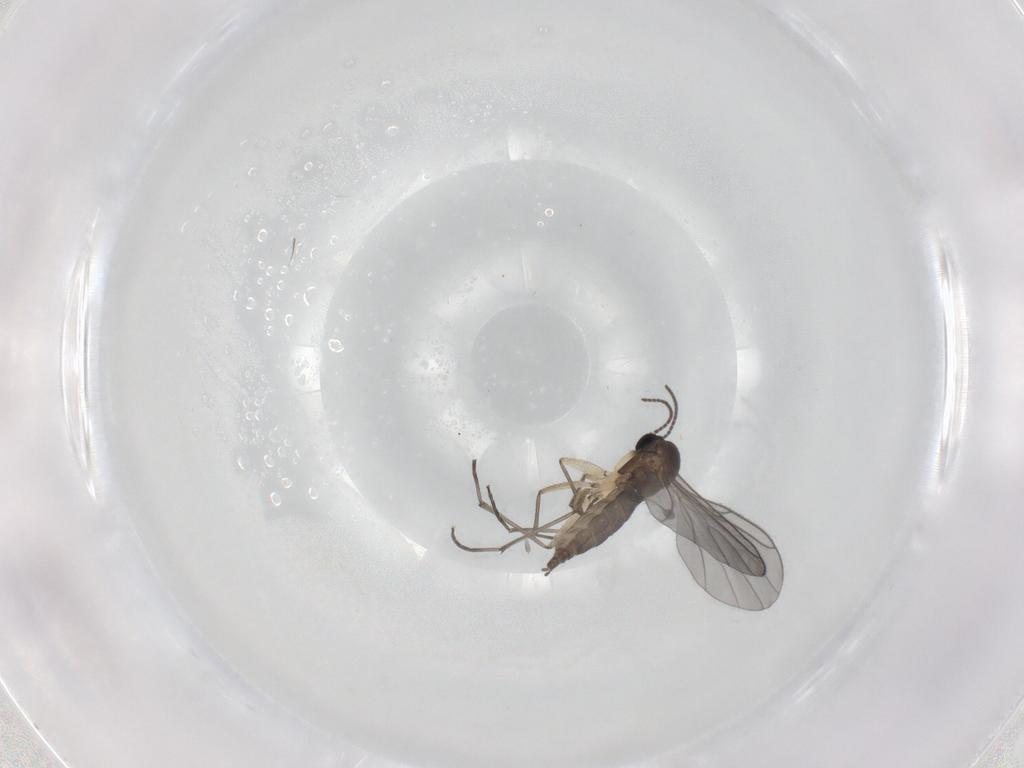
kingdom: Animalia
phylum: Arthropoda
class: Insecta
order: Diptera
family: Sciaridae
